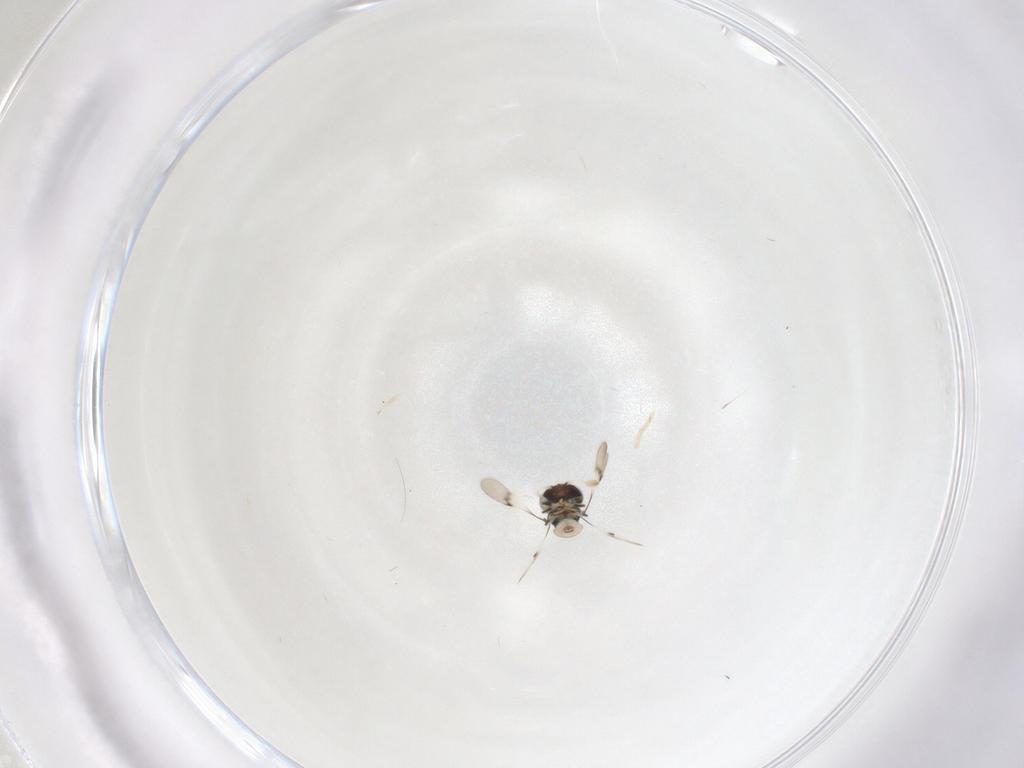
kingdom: Animalia
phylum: Arthropoda
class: Insecta
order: Hymenoptera
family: Scelionidae
